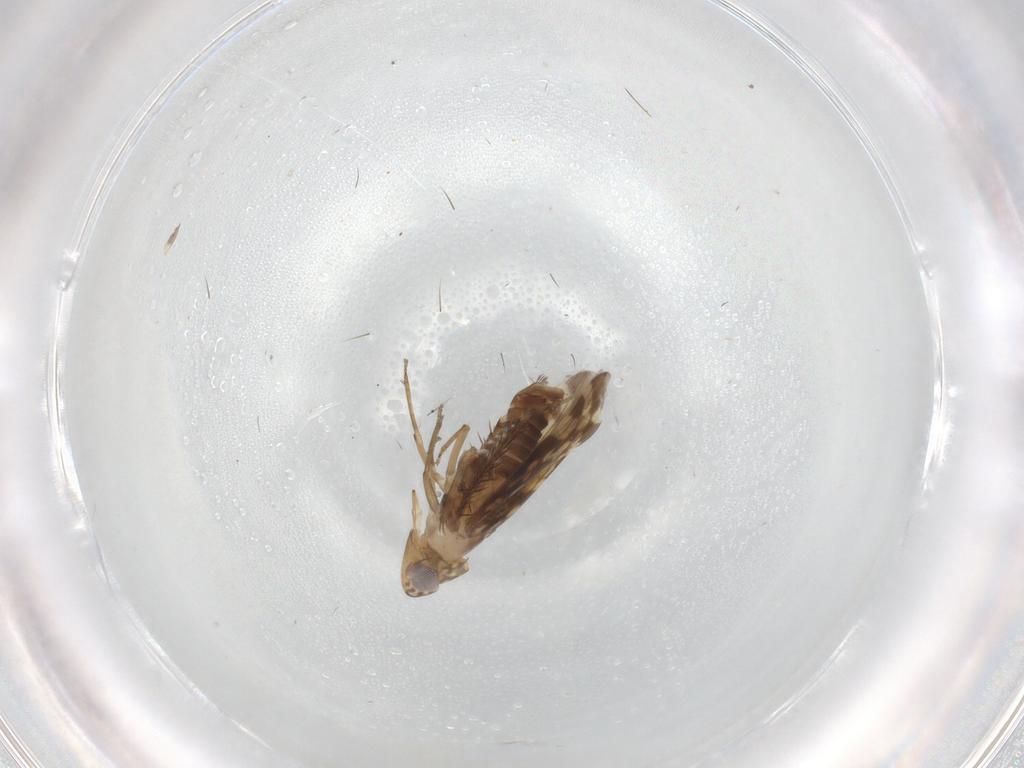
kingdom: Animalia
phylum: Arthropoda
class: Insecta
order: Hemiptera
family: Cicadellidae
